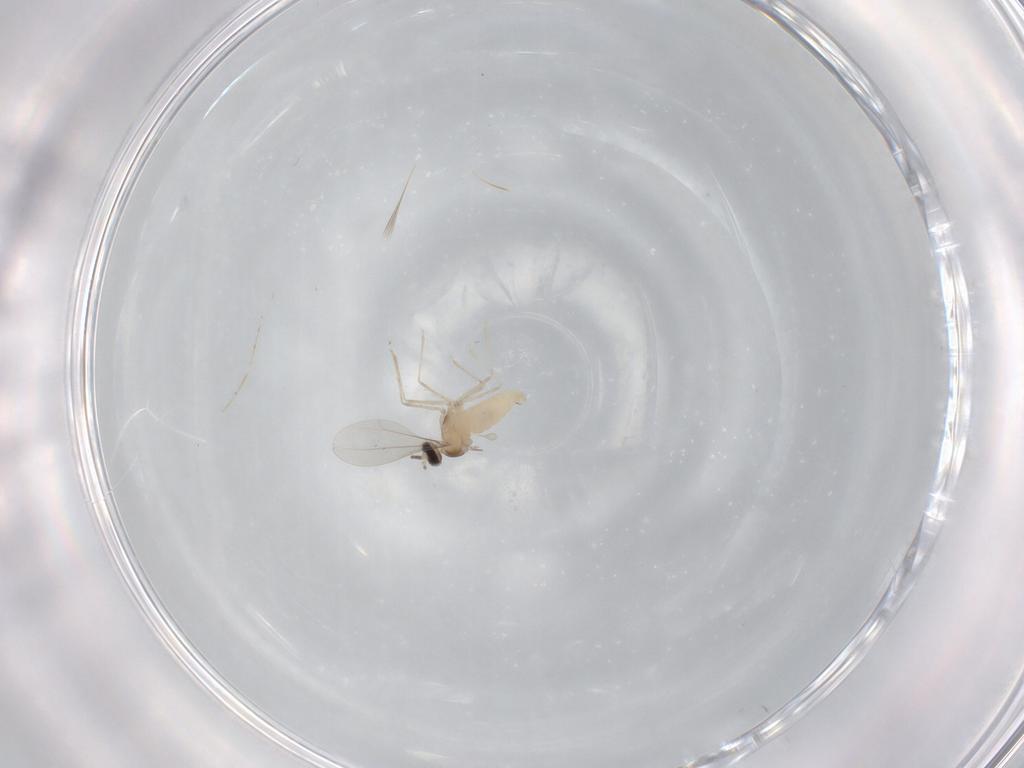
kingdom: Animalia
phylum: Arthropoda
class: Insecta
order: Diptera
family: Cecidomyiidae
